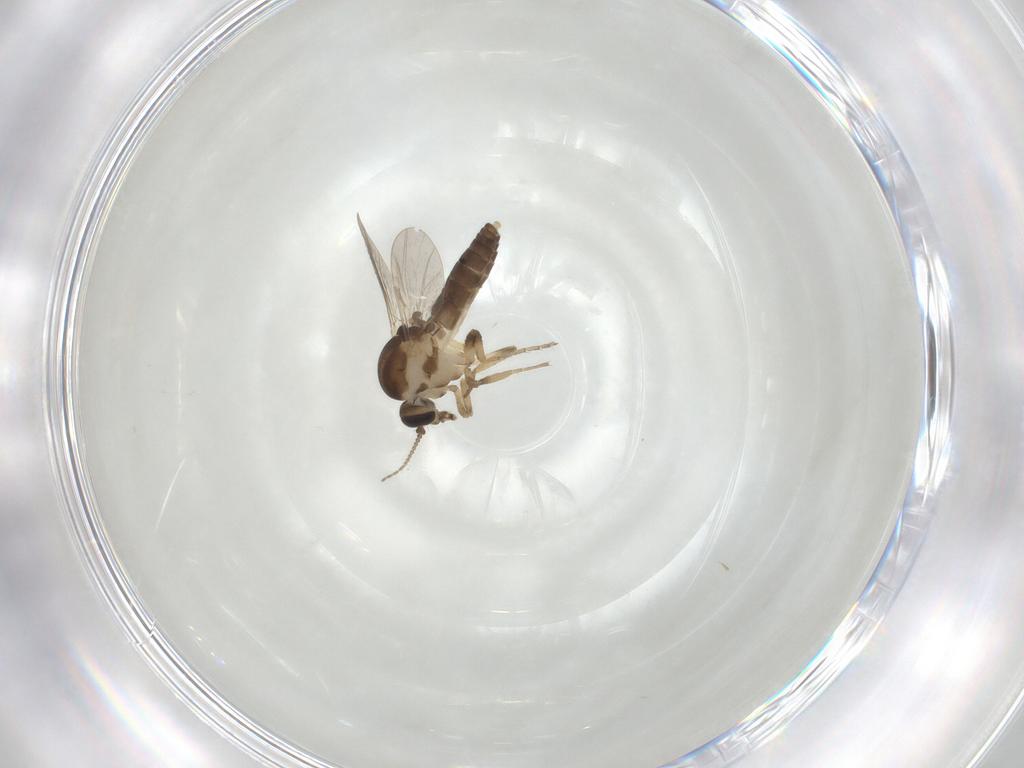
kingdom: Animalia
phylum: Arthropoda
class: Insecta
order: Diptera
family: Ceratopogonidae
